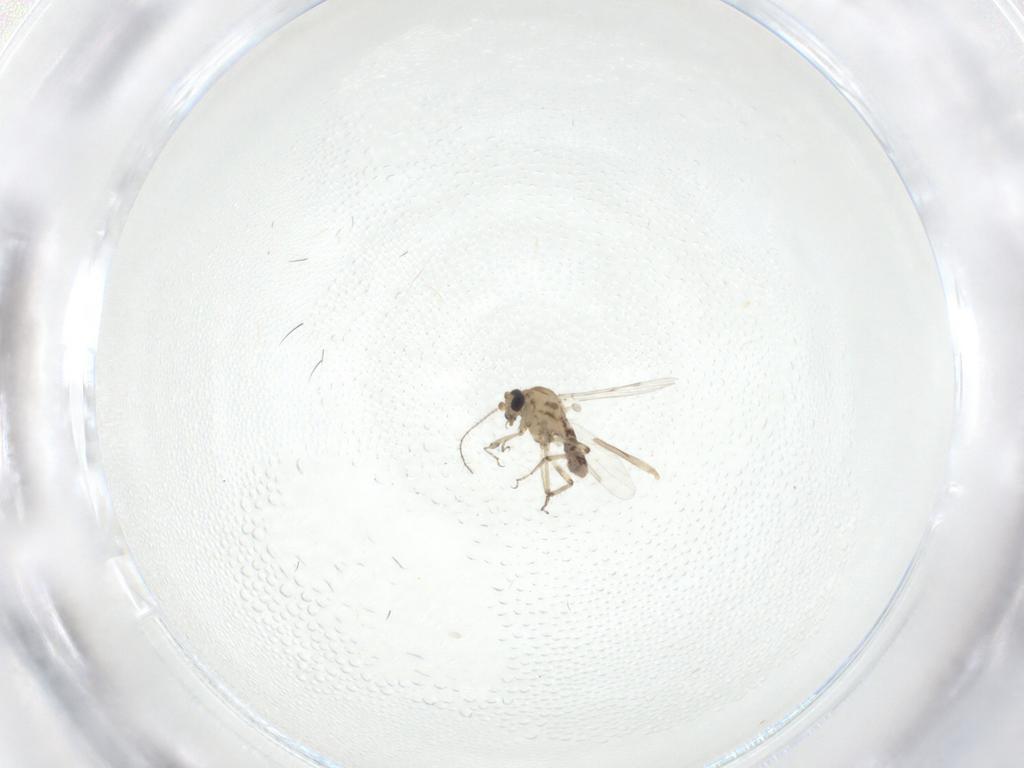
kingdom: Animalia
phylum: Arthropoda
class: Insecta
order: Diptera
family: Ceratopogonidae
